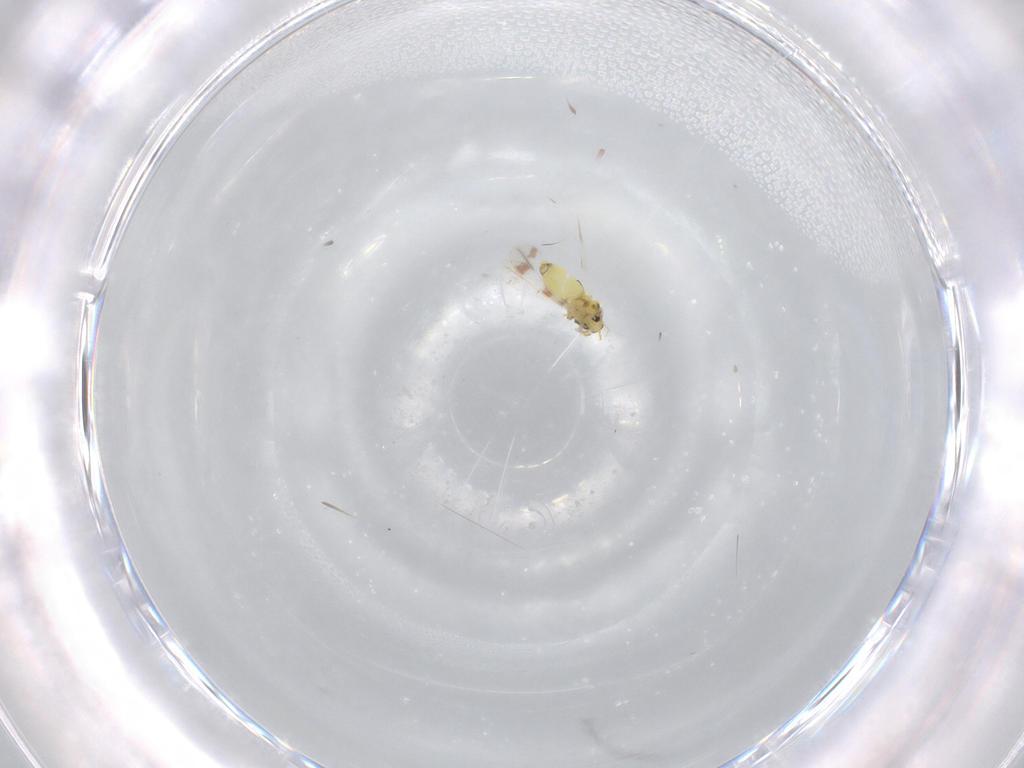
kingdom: Animalia
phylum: Arthropoda
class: Insecta
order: Hemiptera
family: Aleyrodidae
